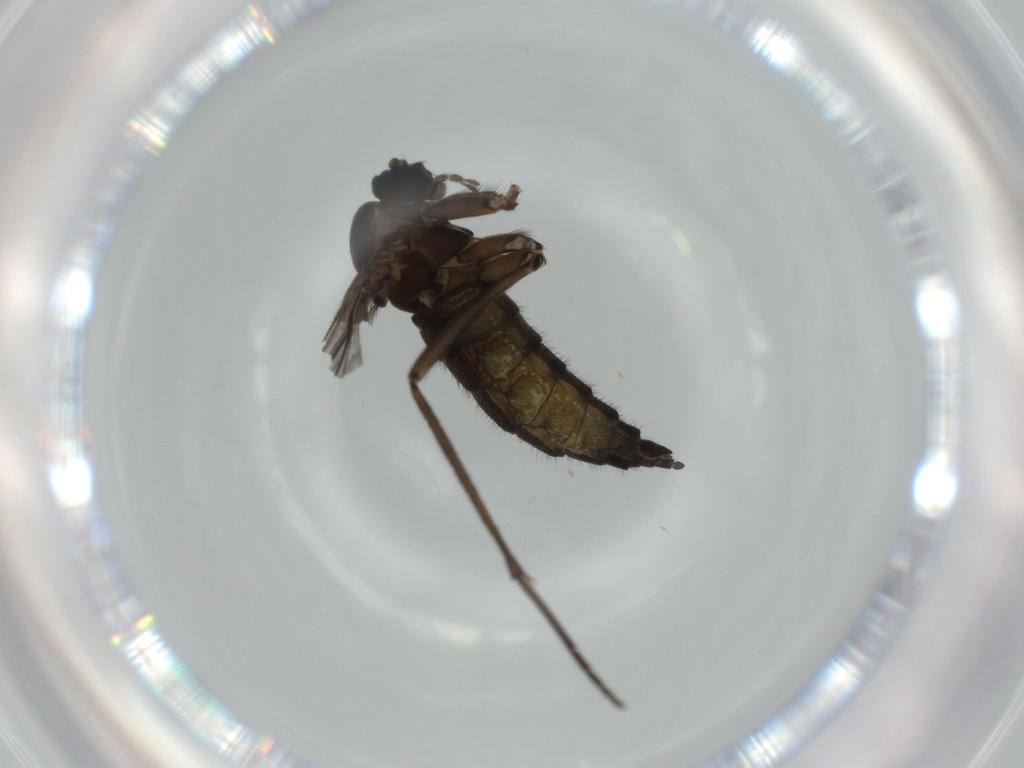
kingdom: Animalia
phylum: Arthropoda
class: Insecta
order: Diptera
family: Sciaridae
